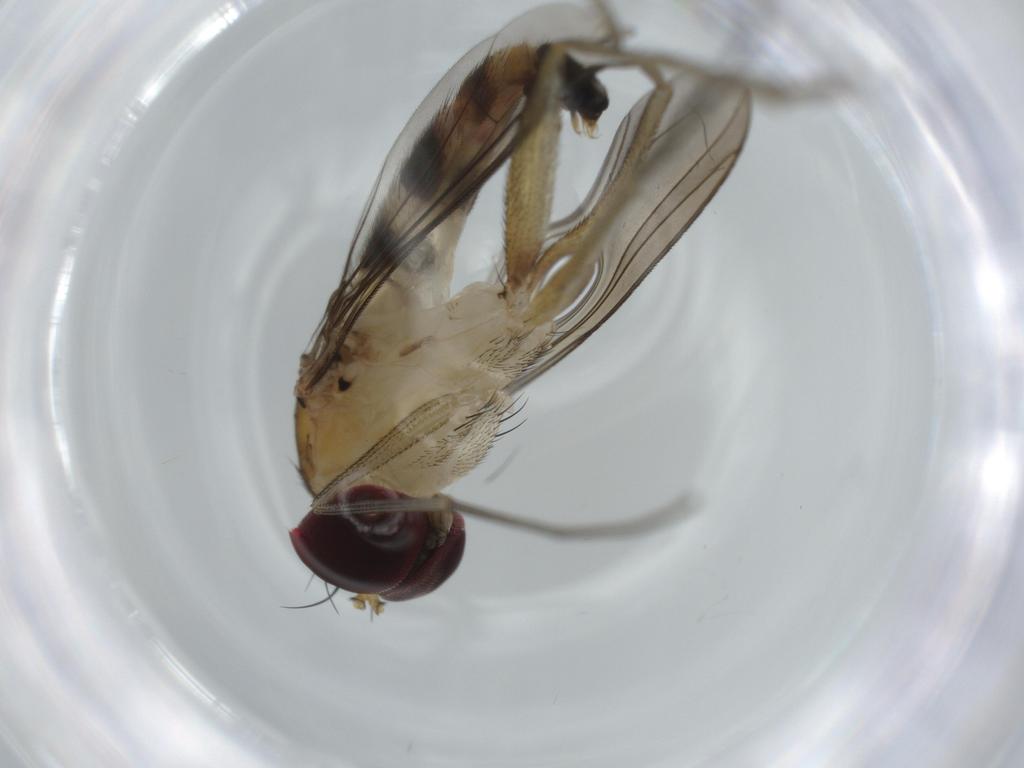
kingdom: Animalia
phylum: Arthropoda
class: Insecta
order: Diptera
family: Dolichopodidae
